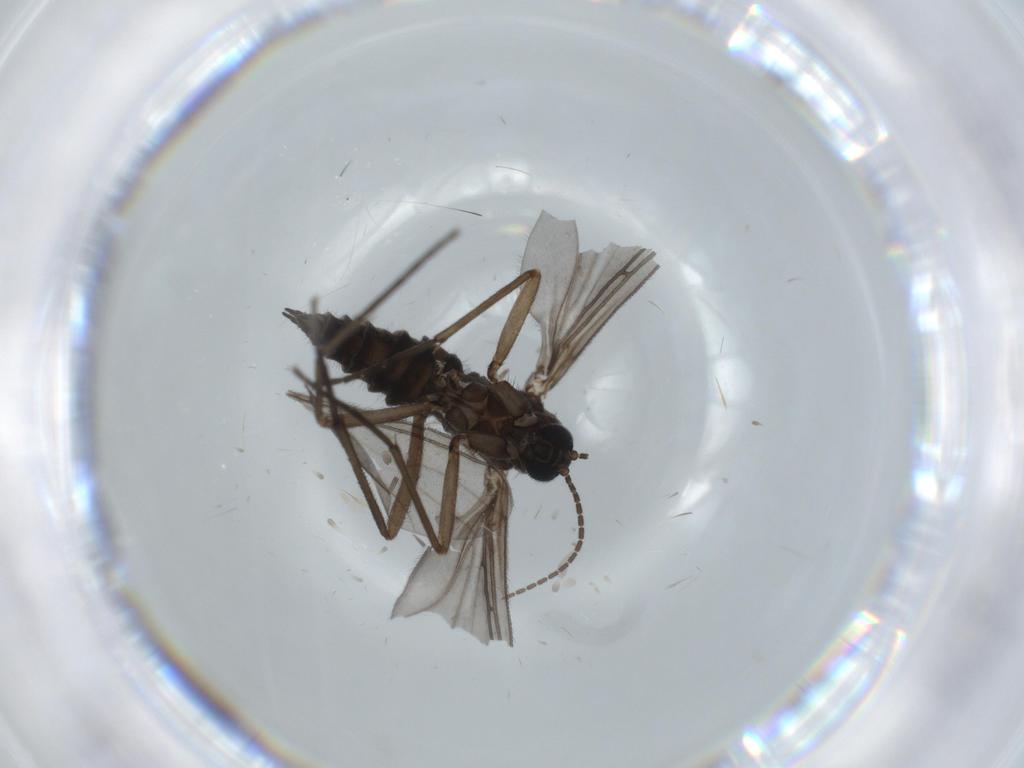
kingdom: Animalia
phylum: Arthropoda
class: Insecta
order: Diptera
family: Sciaridae
